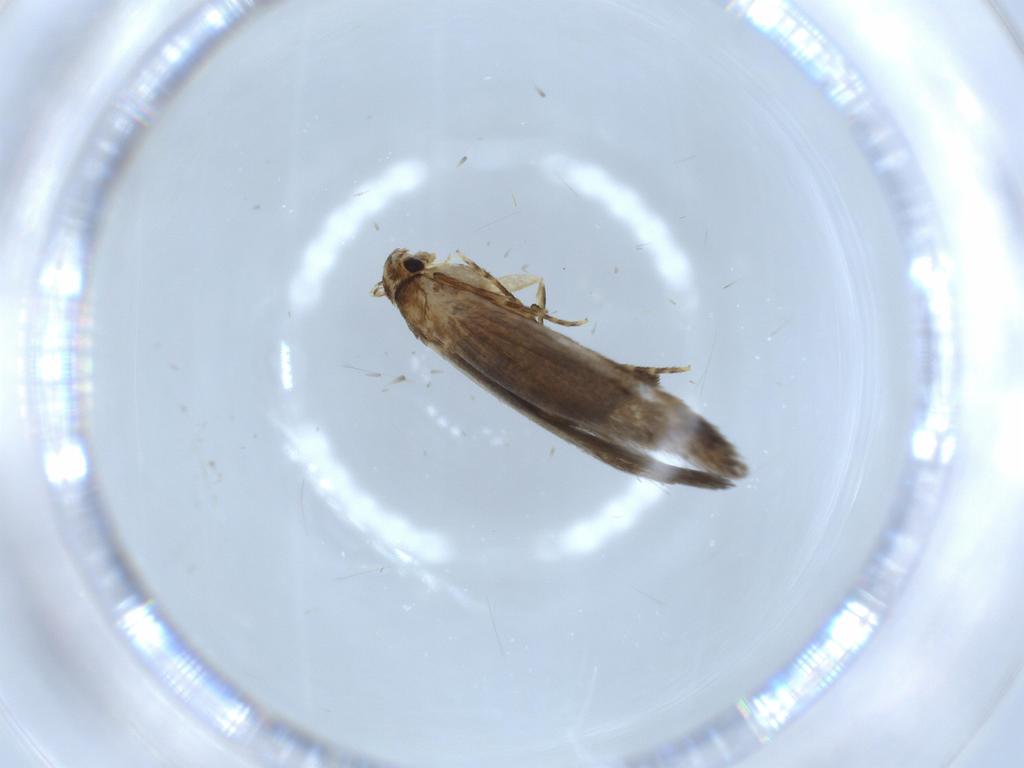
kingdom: Animalia
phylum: Arthropoda
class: Insecta
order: Lepidoptera
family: Tineidae
